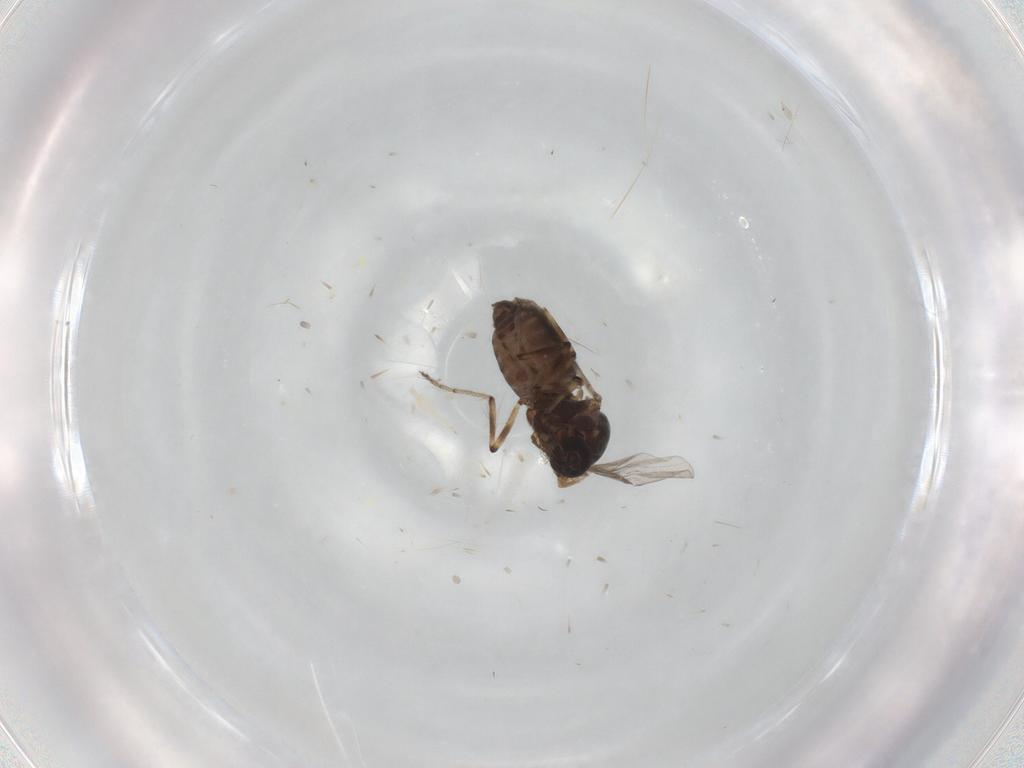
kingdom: Animalia
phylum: Arthropoda
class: Insecta
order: Diptera
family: Ceratopogonidae
